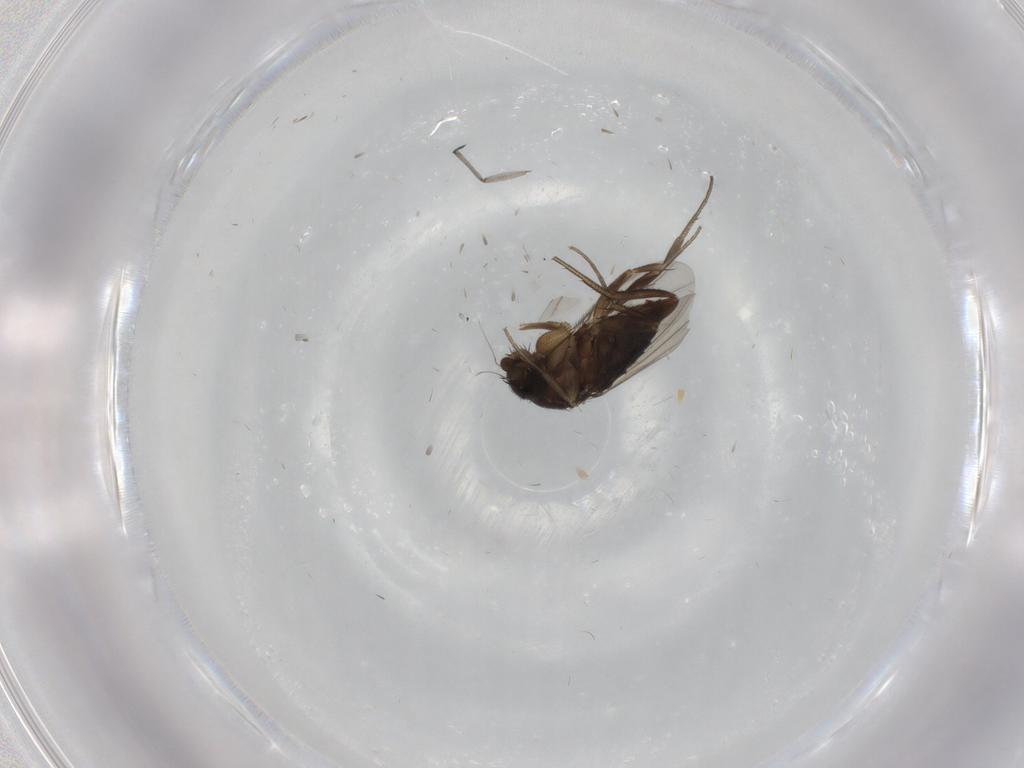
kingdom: Animalia
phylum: Arthropoda
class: Insecta
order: Diptera
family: Phoridae
